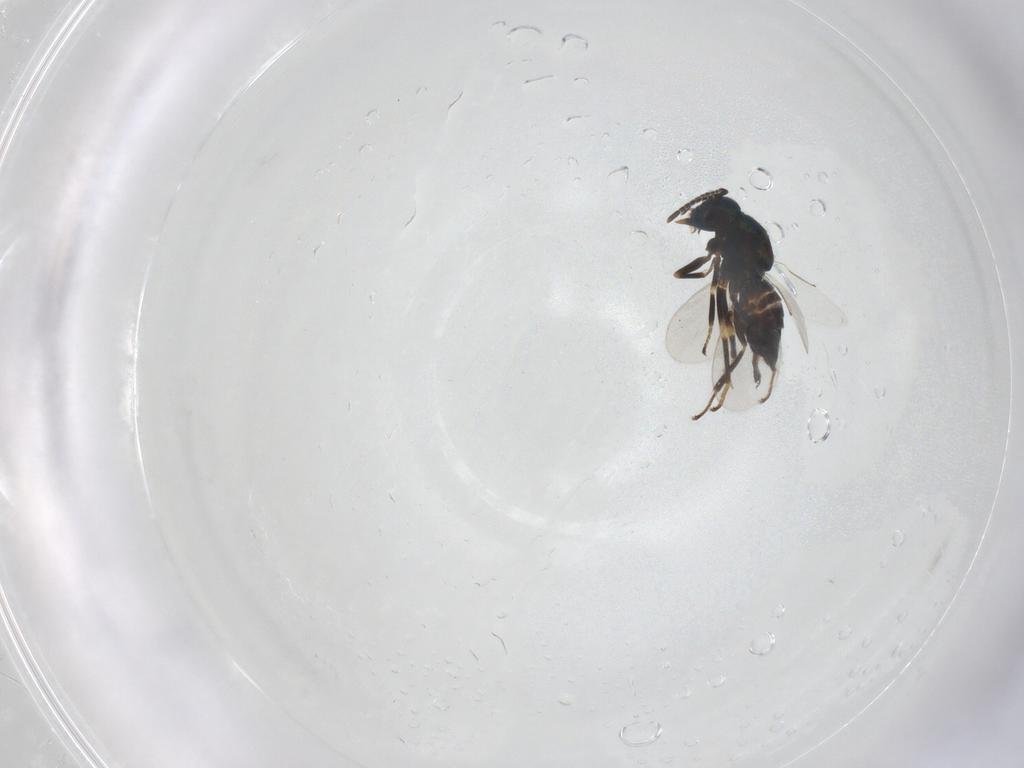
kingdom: Animalia
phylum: Arthropoda
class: Insecta
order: Hymenoptera
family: Encyrtidae
